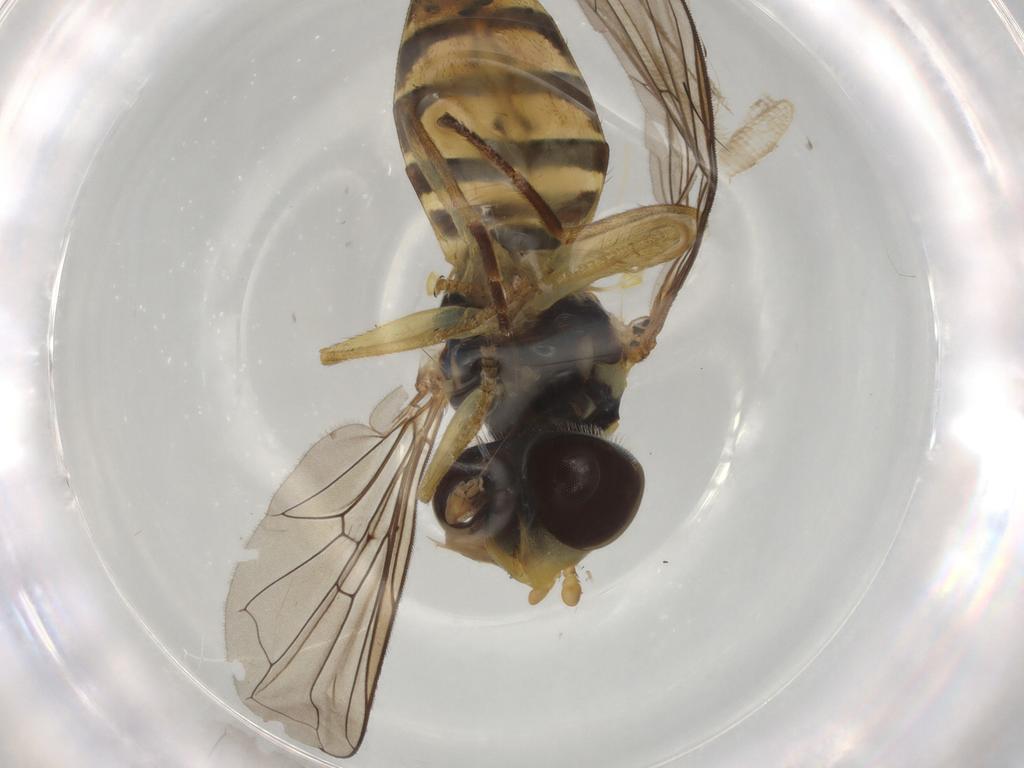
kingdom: Animalia
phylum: Arthropoda
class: Insecta
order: Diptera
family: Syrphidae
